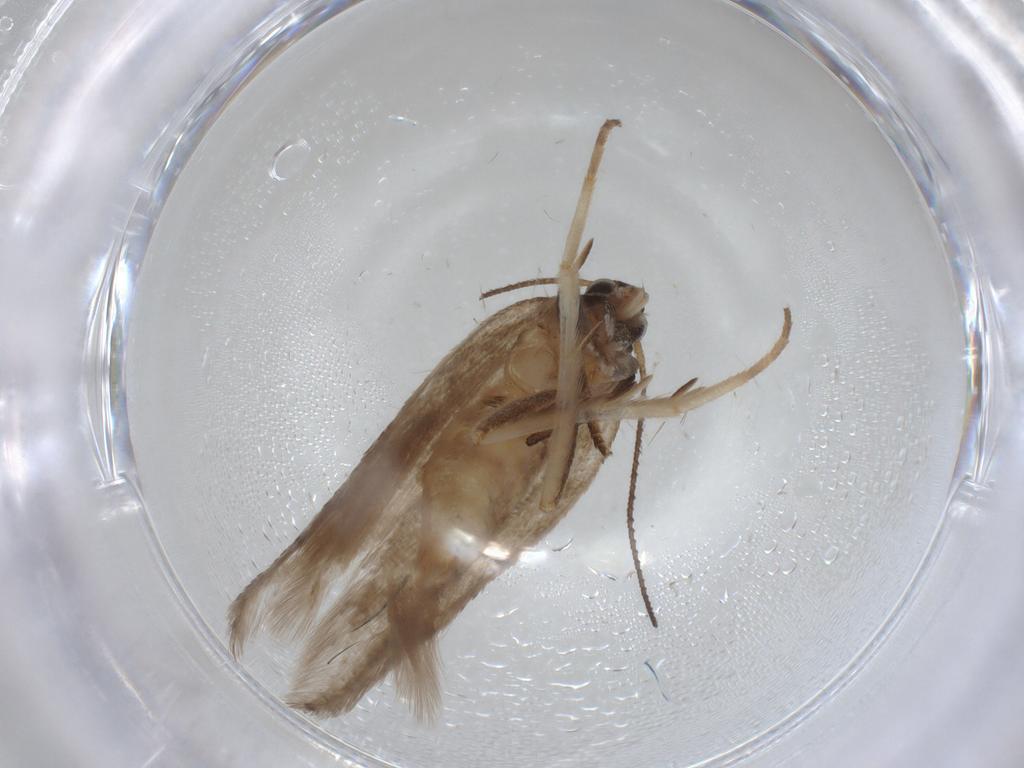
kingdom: Animalia
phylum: Arthropoda
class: Insecta
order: Lepidoptera
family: Gelechiidae
